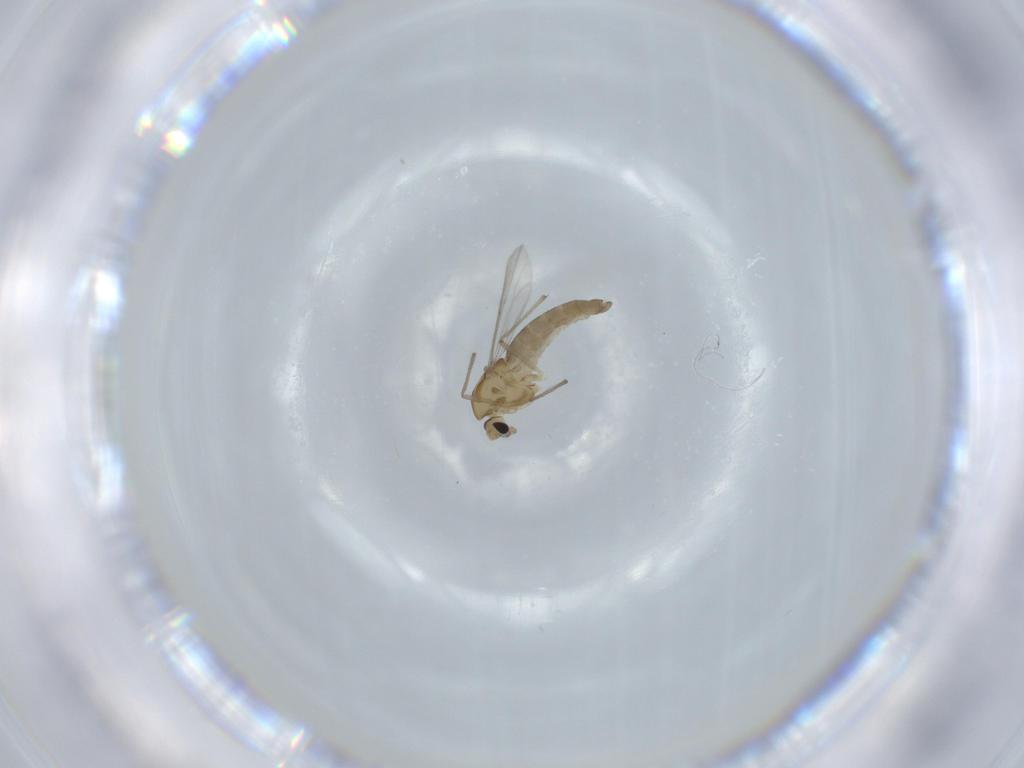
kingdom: Animalia
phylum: Arthropoda
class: Insecta
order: Diptera
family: Chironomidae
